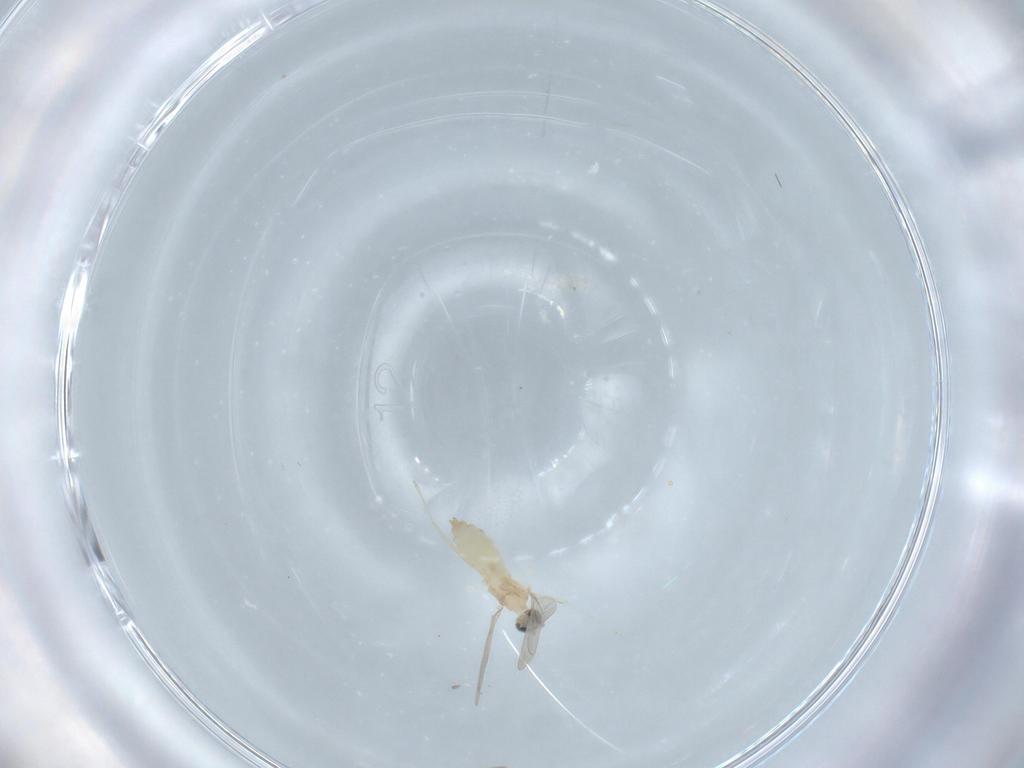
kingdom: Animalia
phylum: Arthropoda
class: Insecta
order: Diptera
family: Cecidomyiidae
